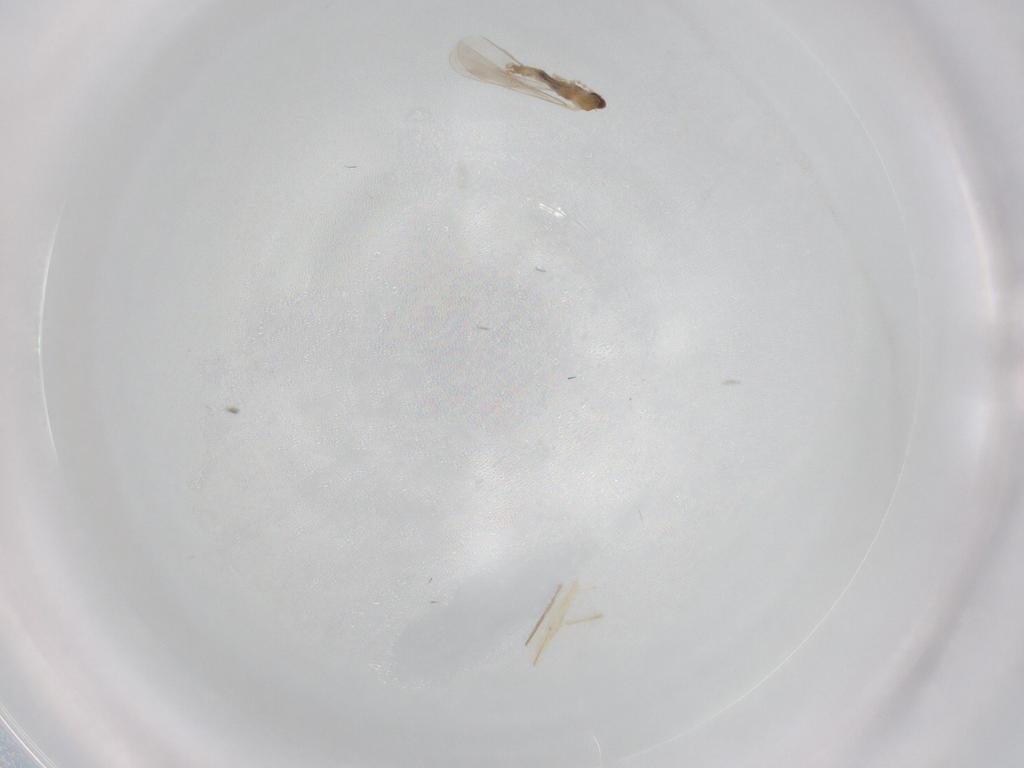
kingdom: Animalia
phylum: Arthropoda
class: Insecta
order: Diptera
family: Cecidomyiidae
